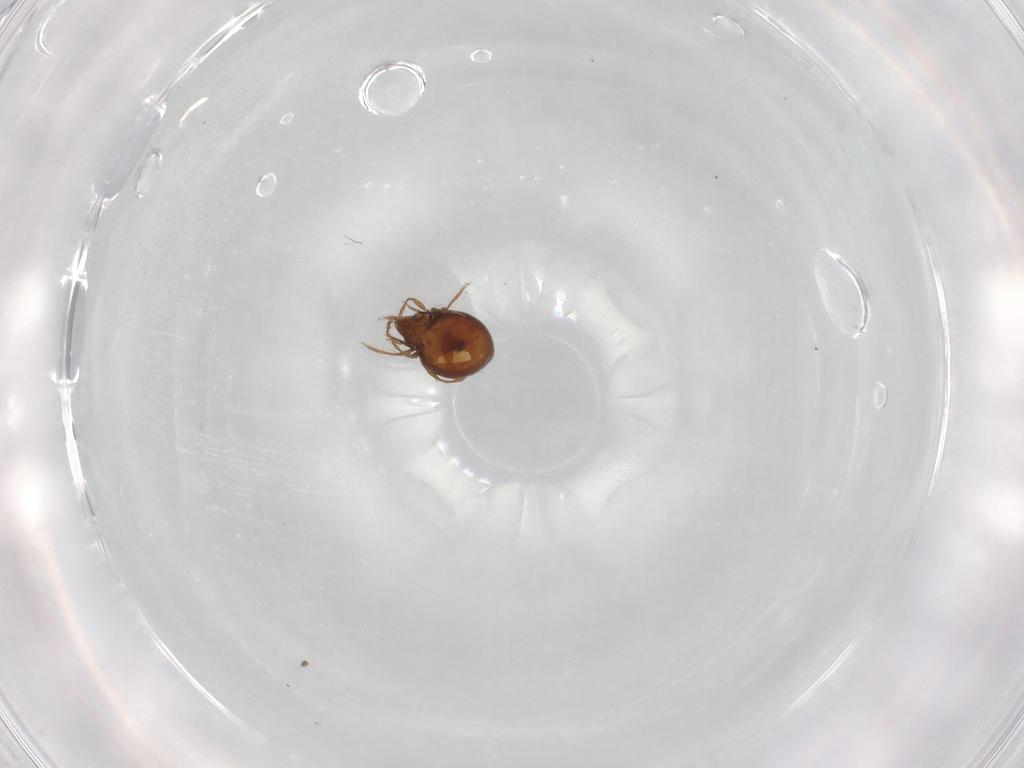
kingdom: Animalia
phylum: Arthropoda
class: Arachnida
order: Sarcoptiformes
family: Oribatulidae
